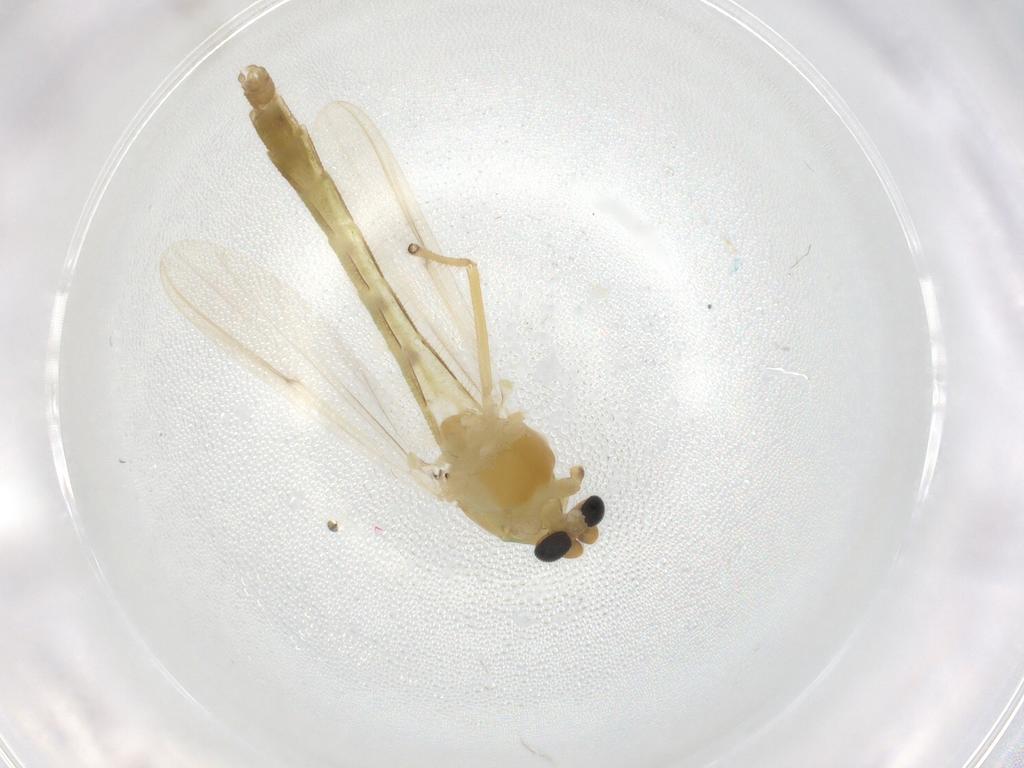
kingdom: Animalia
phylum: Arthropoda
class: Insecta
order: Diptera
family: Chironomidae
